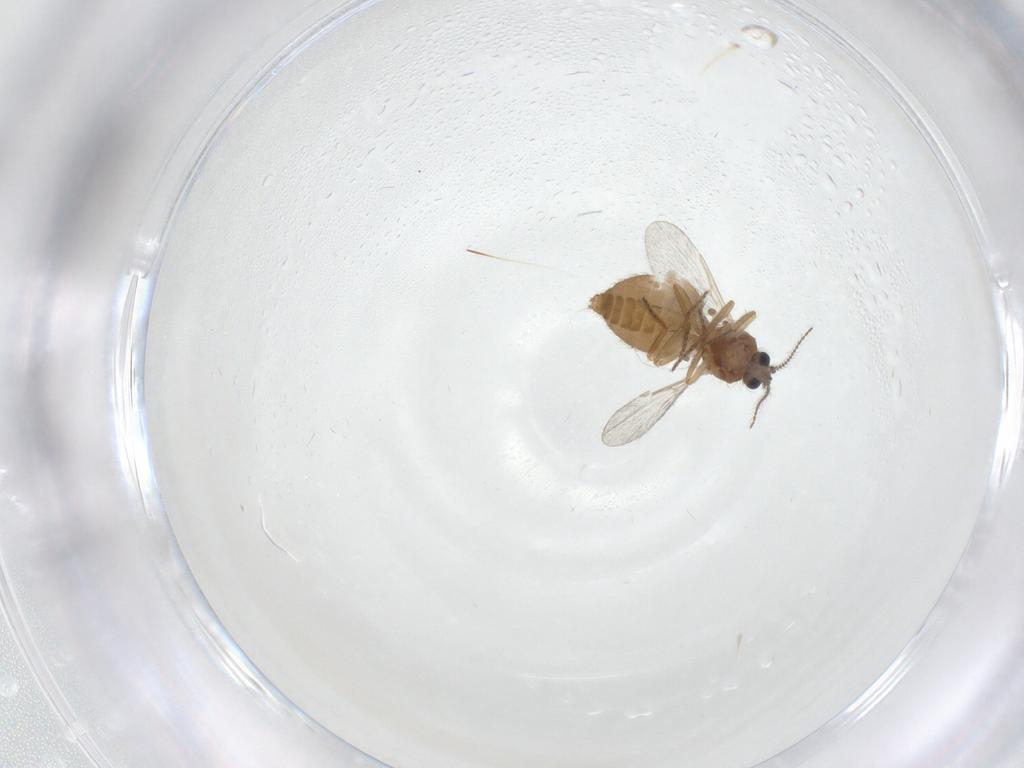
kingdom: Animalia
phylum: Arthropoda
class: Insecta
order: Diptera
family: Ceratopogonidae
